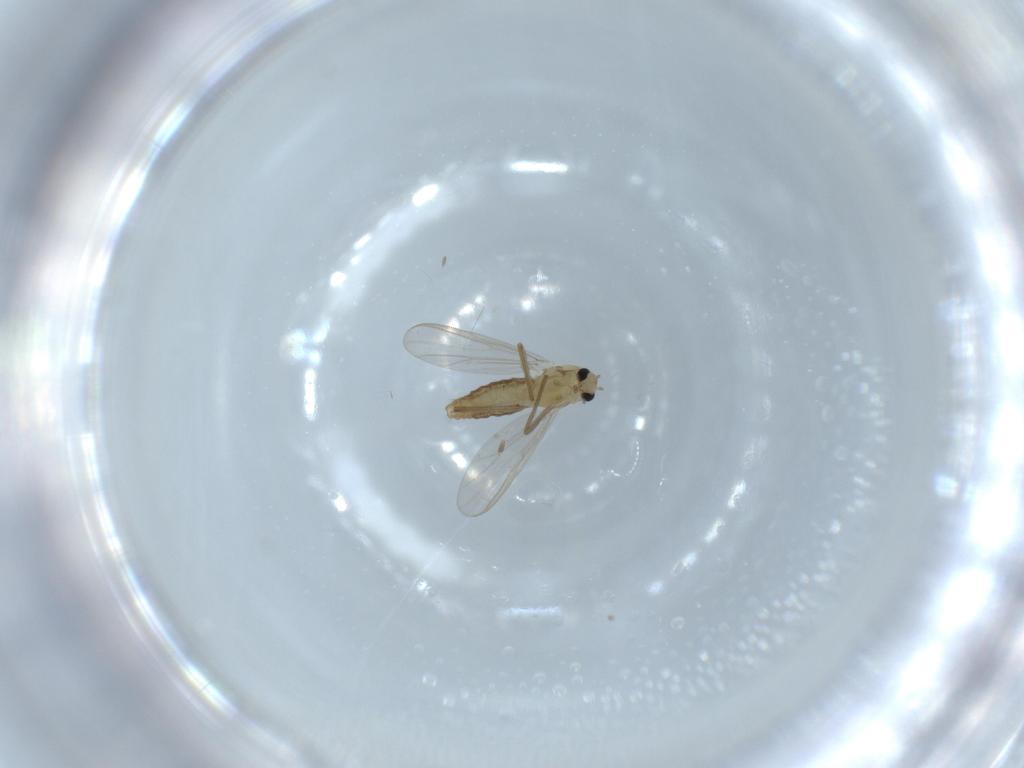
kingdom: Animalia
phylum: Arthropoda
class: Insecta
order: Diptera
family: Chironomidae
